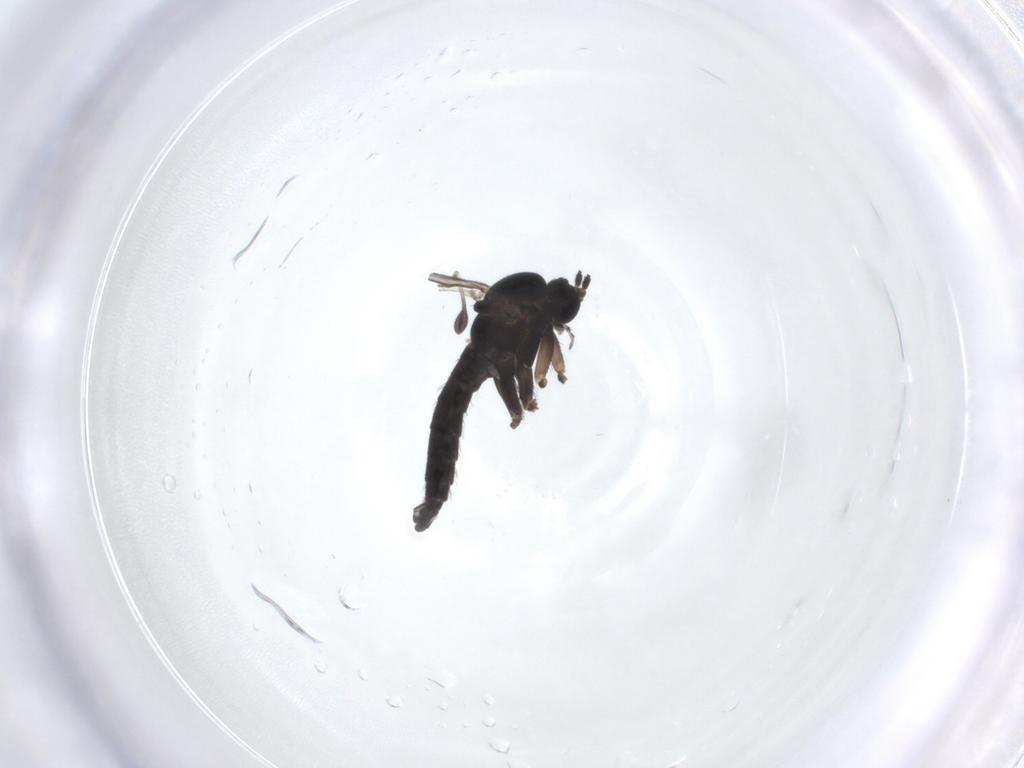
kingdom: Animalia
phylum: Arthropoda
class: Insecta
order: Diptera
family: Sciaridae
